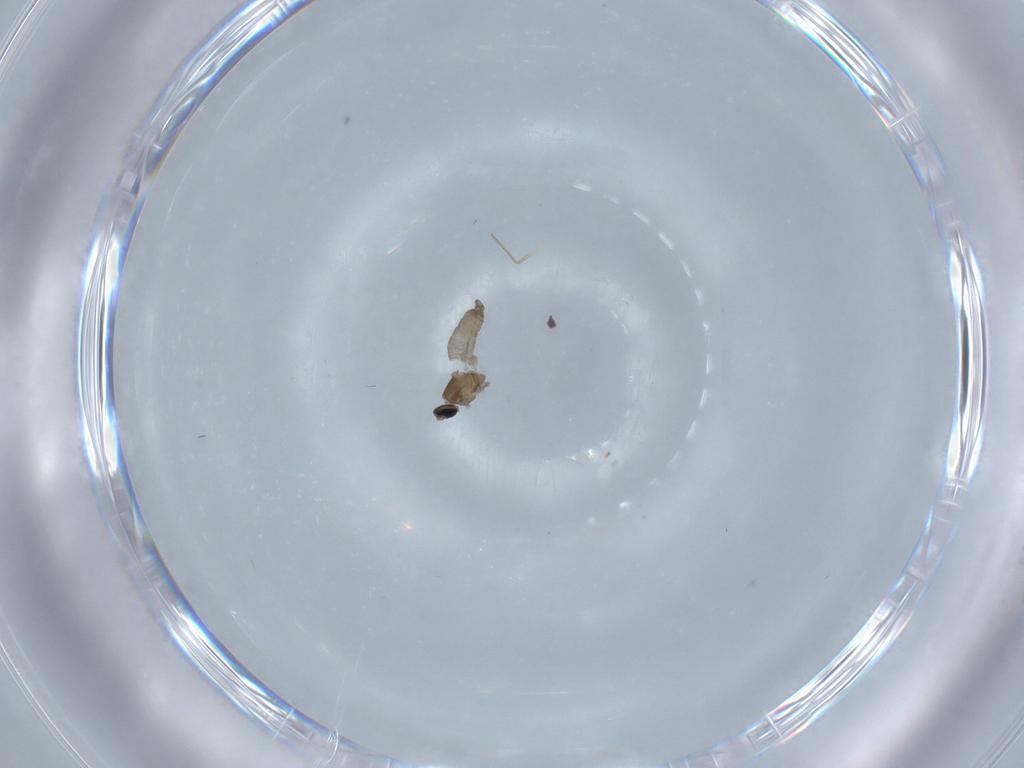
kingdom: Animalia
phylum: Arthropoda
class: Insecta
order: Diptera
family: Cecidomyiidae
